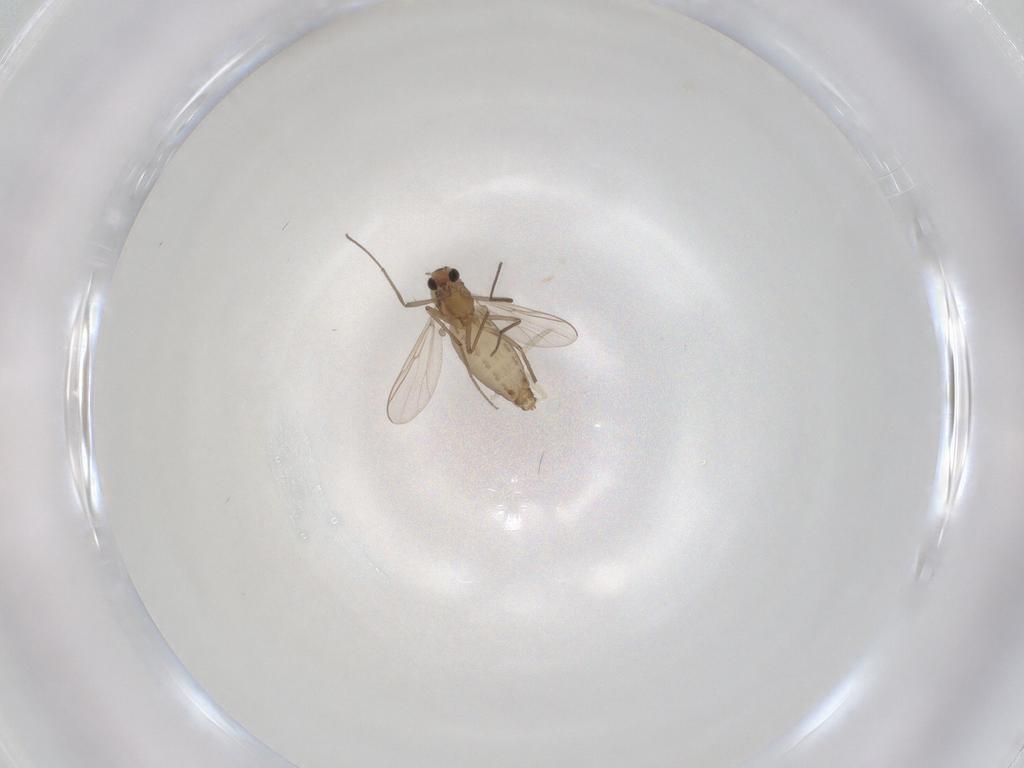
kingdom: Animalia
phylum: Arthropoda
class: Insecta
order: Diptera
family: Chironomidae
